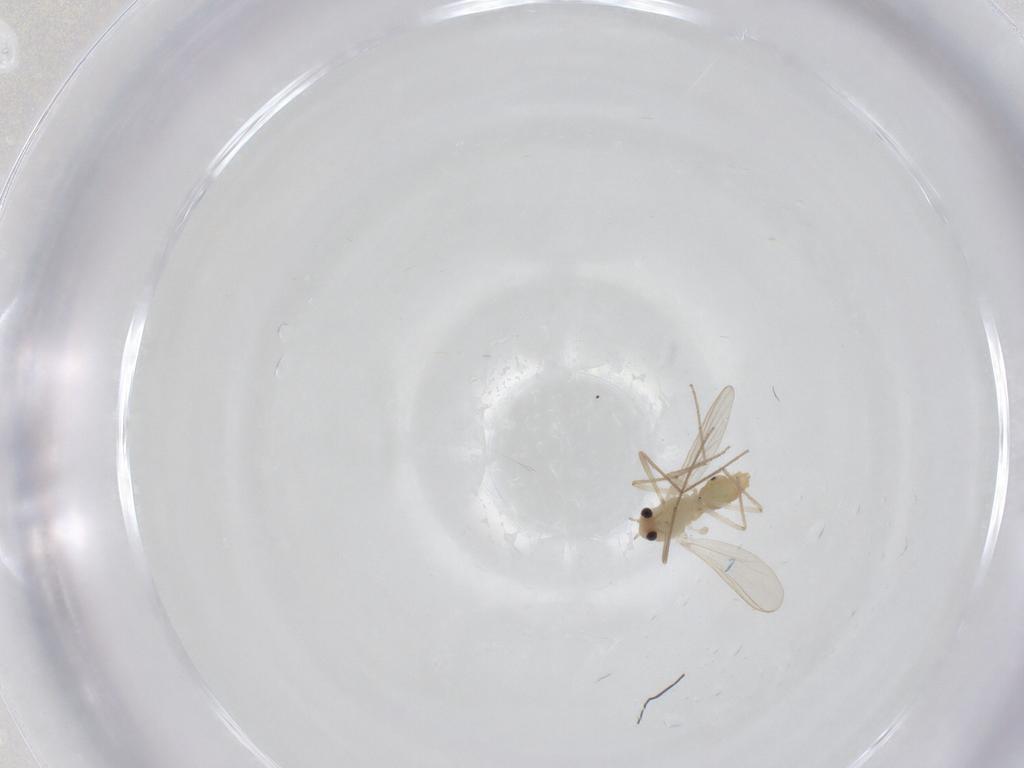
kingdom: Animalia
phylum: Arthropoda
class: Insecta
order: Diptera
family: Chironomidae
